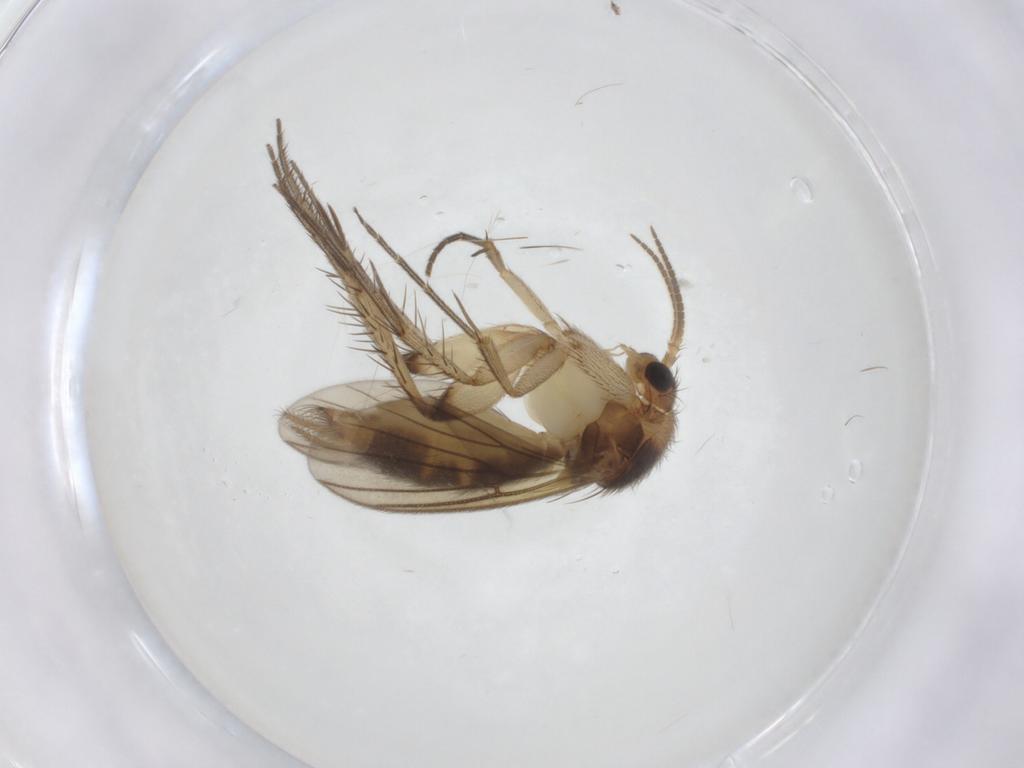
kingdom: Animalia
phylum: Arthropoda
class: Insecta
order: Diptera
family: Mycetophilidae
